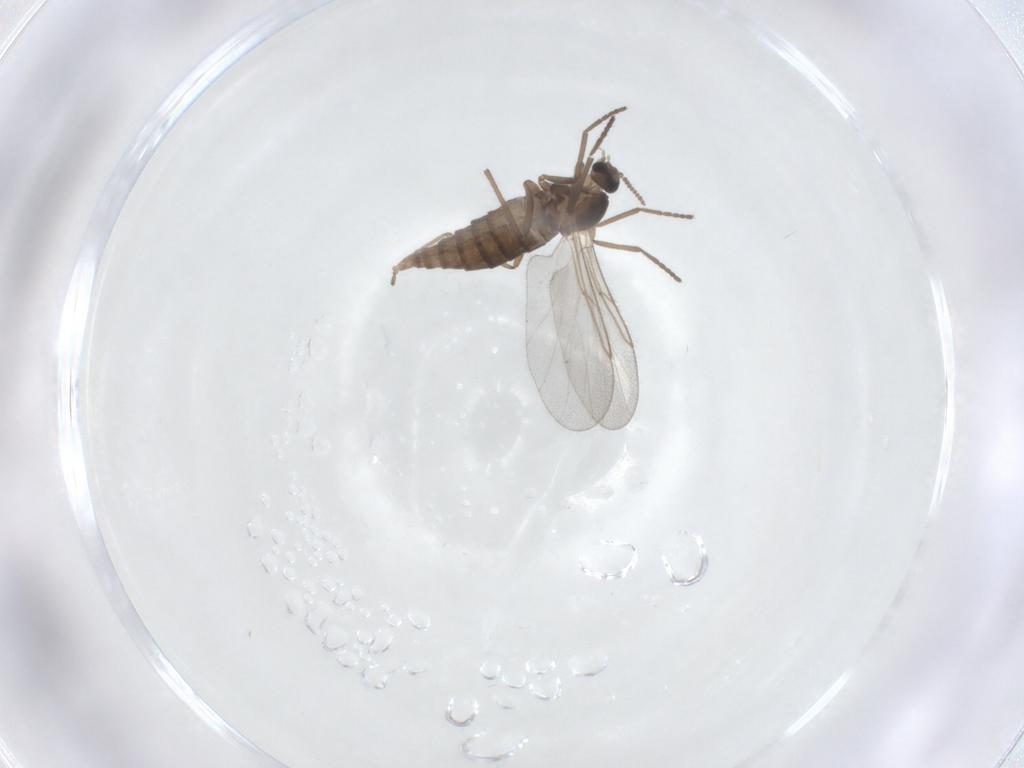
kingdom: Animalia
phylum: Arthropoda
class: Insecta
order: Diptera
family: Cecidomyiidae
